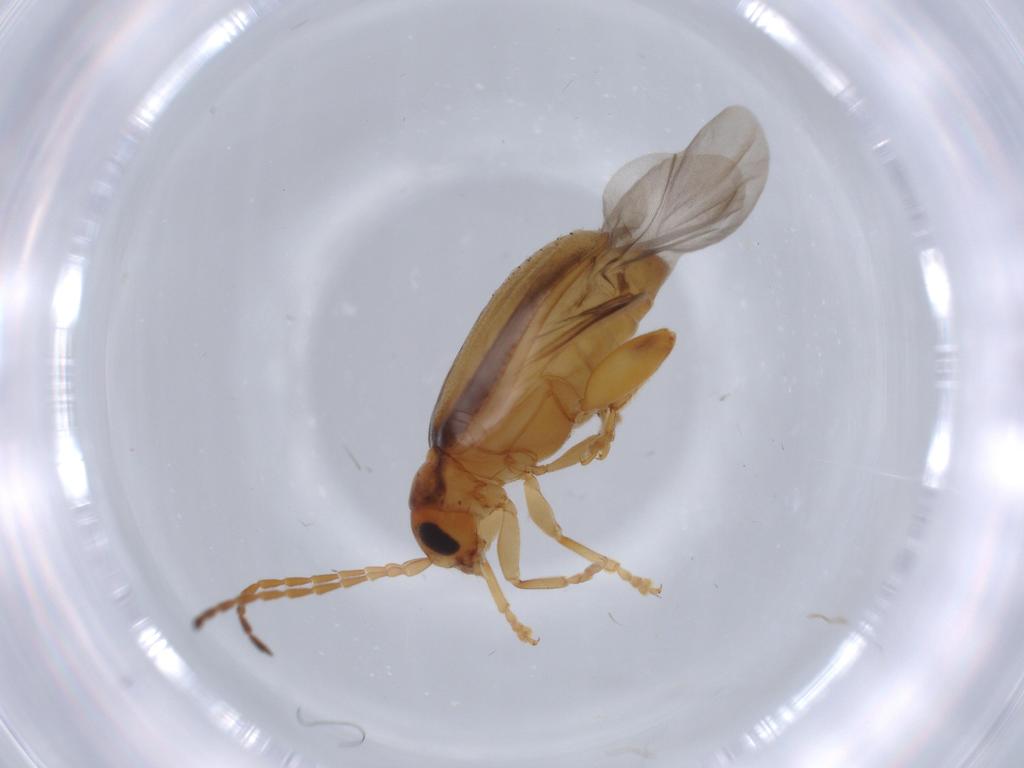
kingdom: Animalia
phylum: Arthropoda
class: Insecta
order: Coleoptera
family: Chrysomelidae
